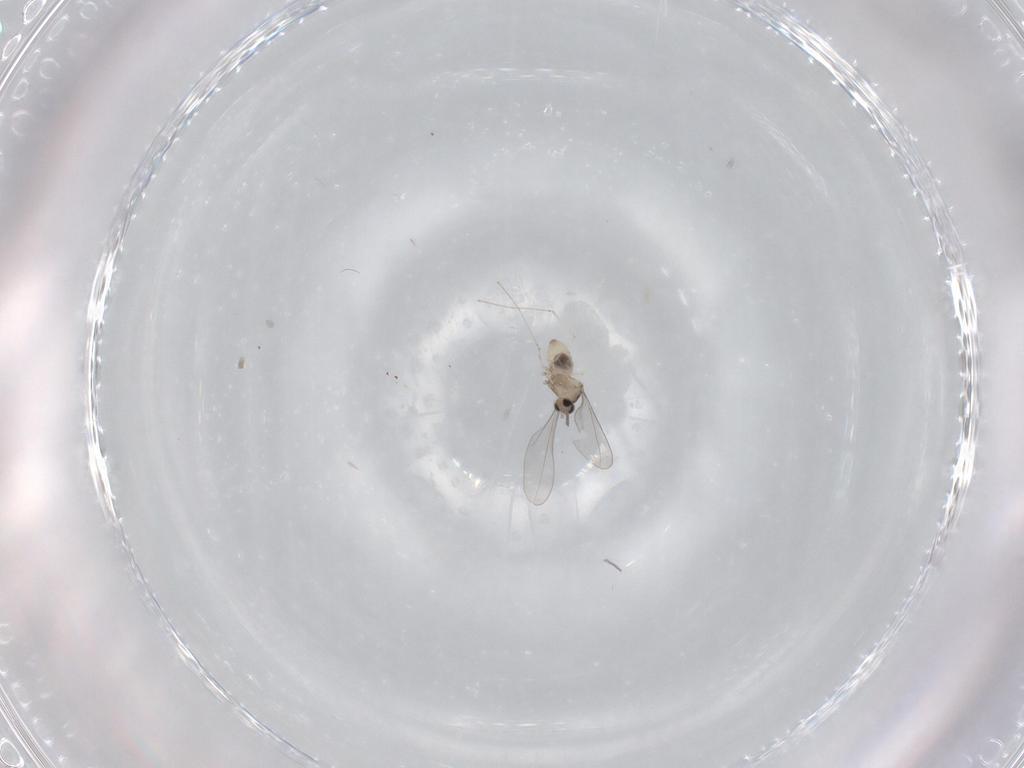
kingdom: Animalia
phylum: Arthropoda
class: Insecta
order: Diptera
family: Cecidomyiidae
